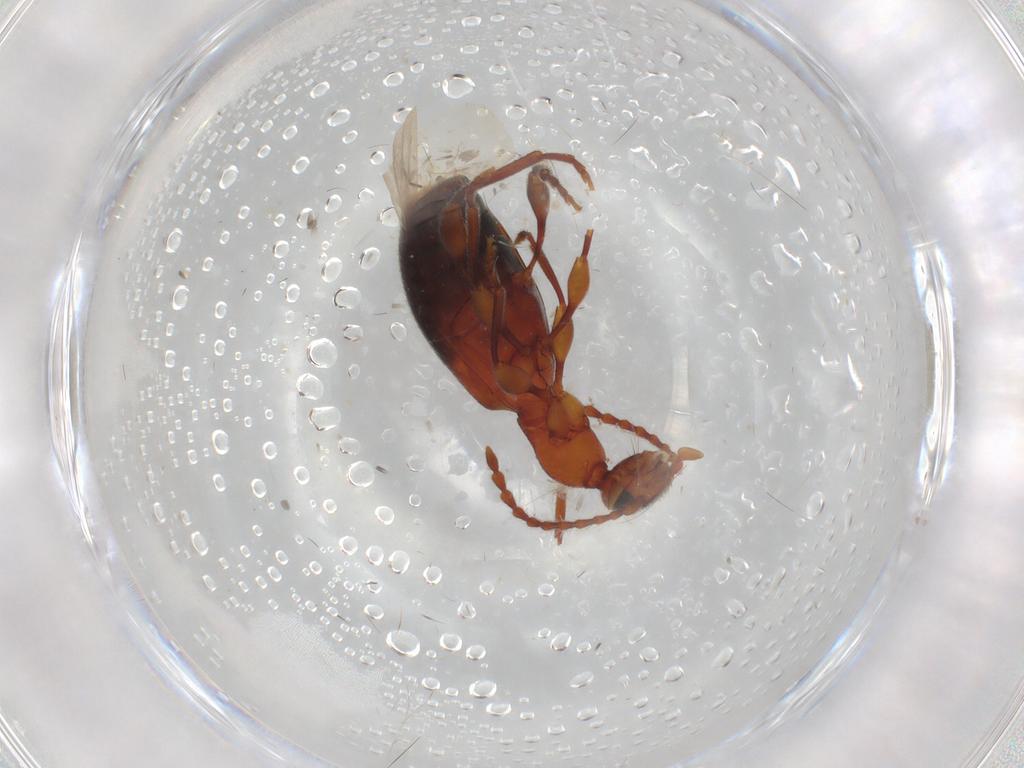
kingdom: Animalia
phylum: Arthropoda
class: Insecta
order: Coleoptera
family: Anthicidae
